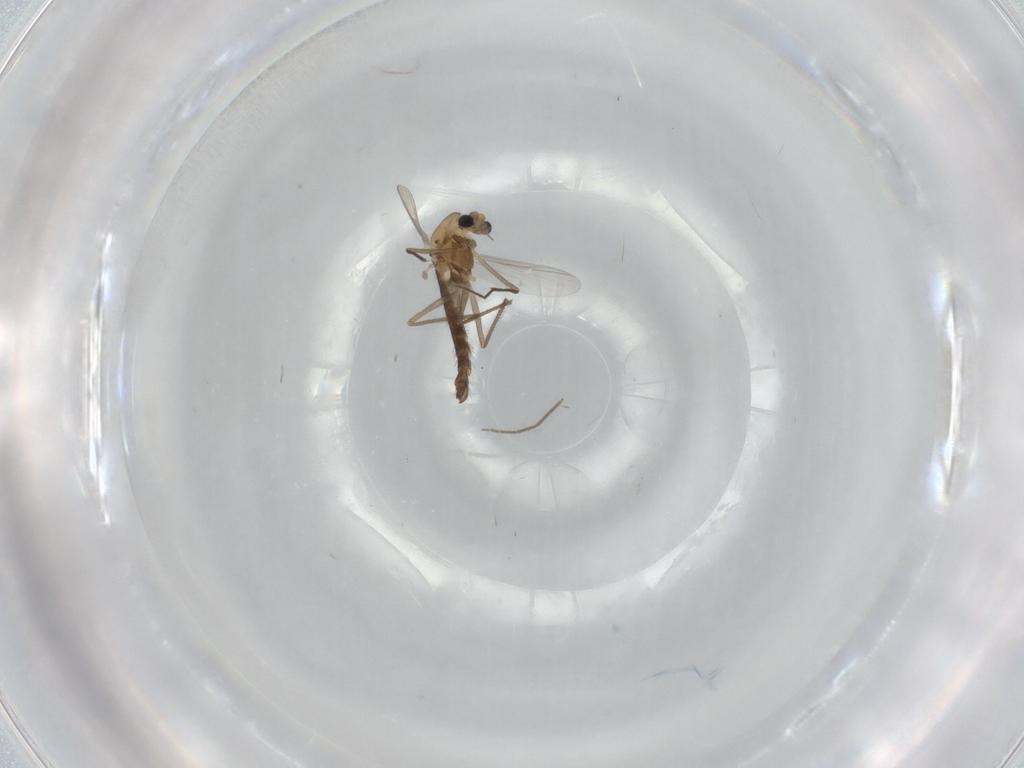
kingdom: Animalia
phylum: Arthropoda
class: Insecta
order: Diptera
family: Micropezidae
